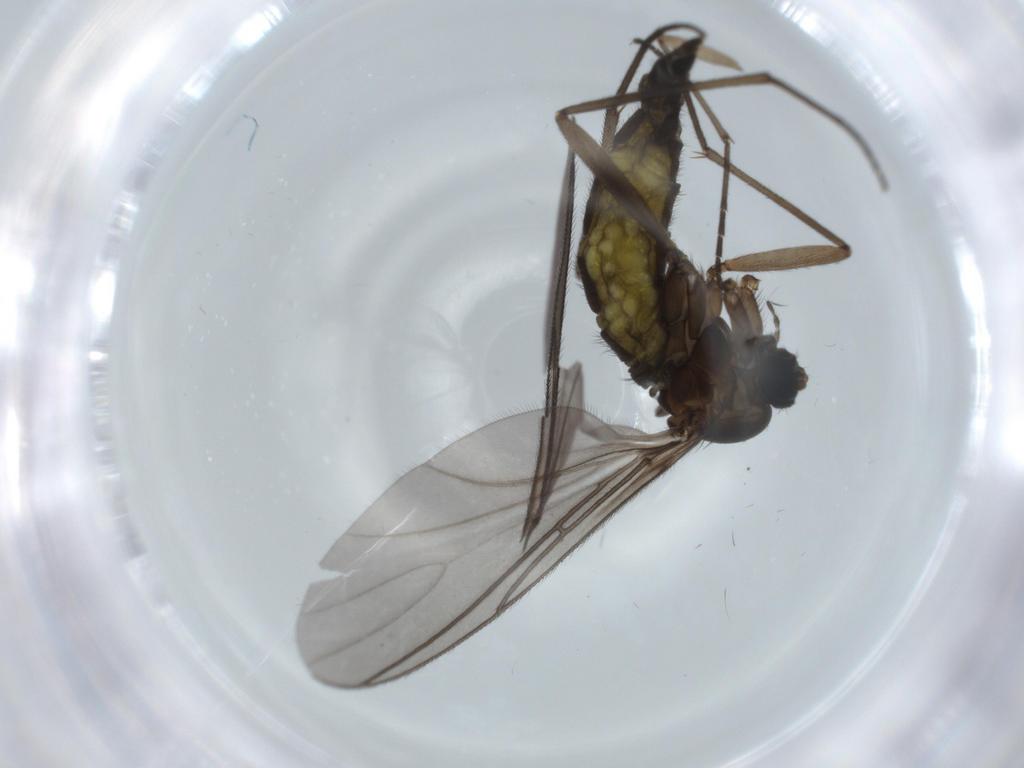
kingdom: Animalia
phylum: Arthropoda
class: Insecta
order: Diptera
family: Sciaridae
